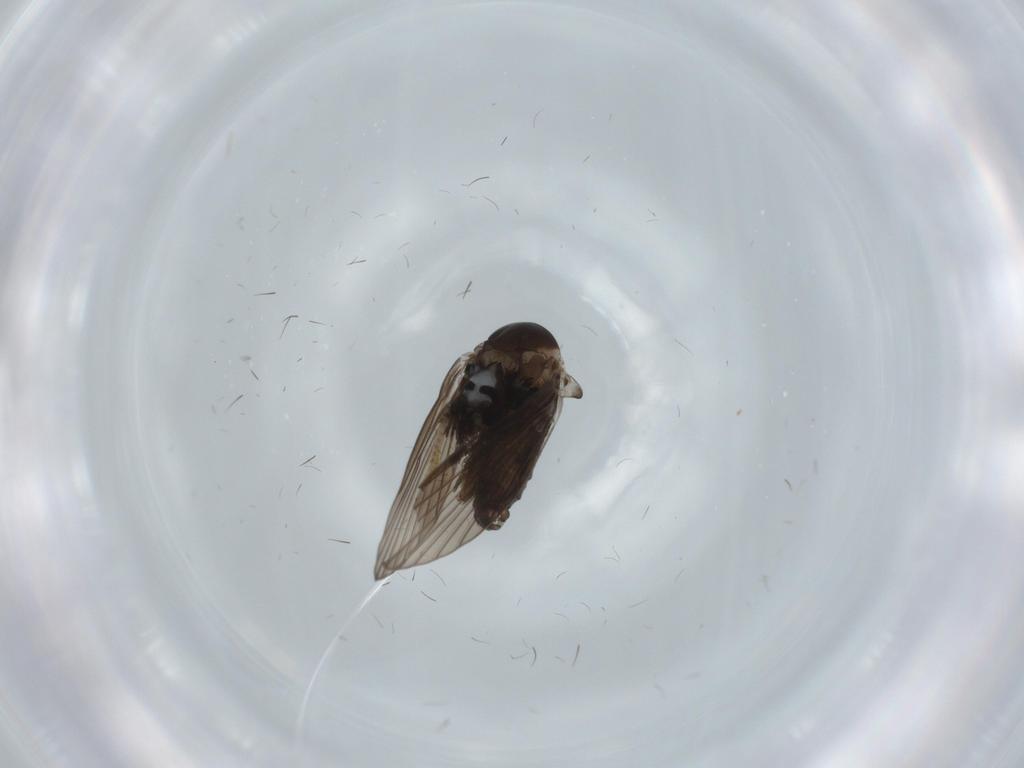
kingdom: Animalia
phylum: Arthropoda
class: Insecta
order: Diptera
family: Psychodidae
